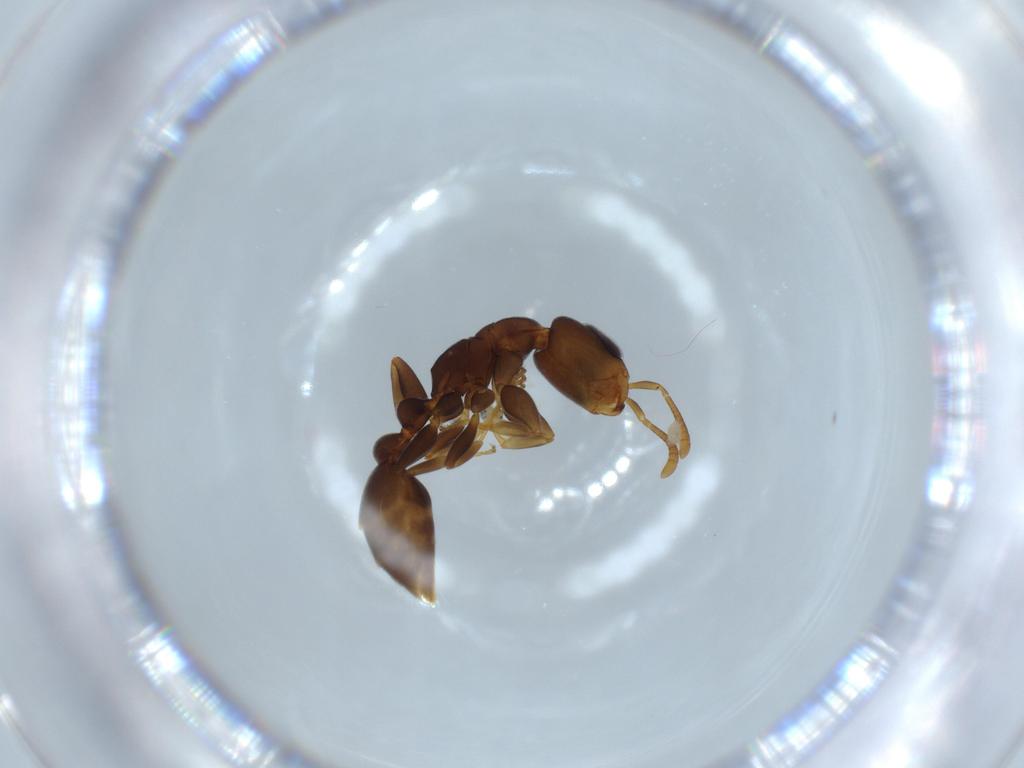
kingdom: Animalia
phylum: Arthropoda
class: Insecta
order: Hymenoptera
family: Formicidae
